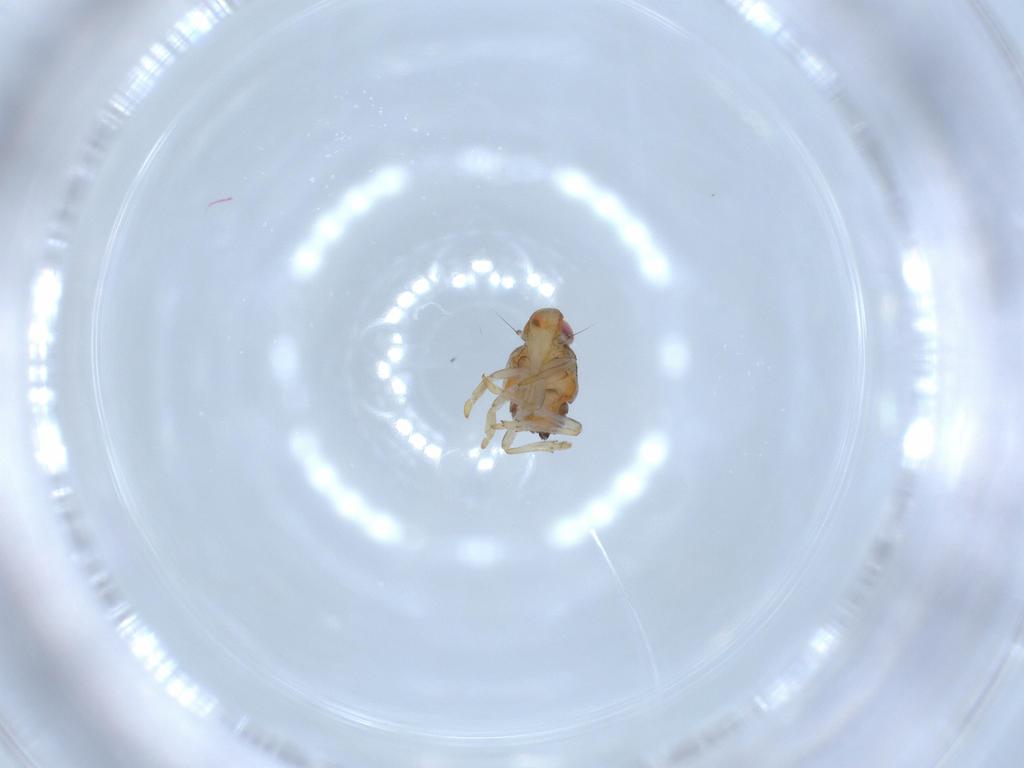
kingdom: Animalia
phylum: Arthropoda
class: Insecta
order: Hemiptera
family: Issidae
